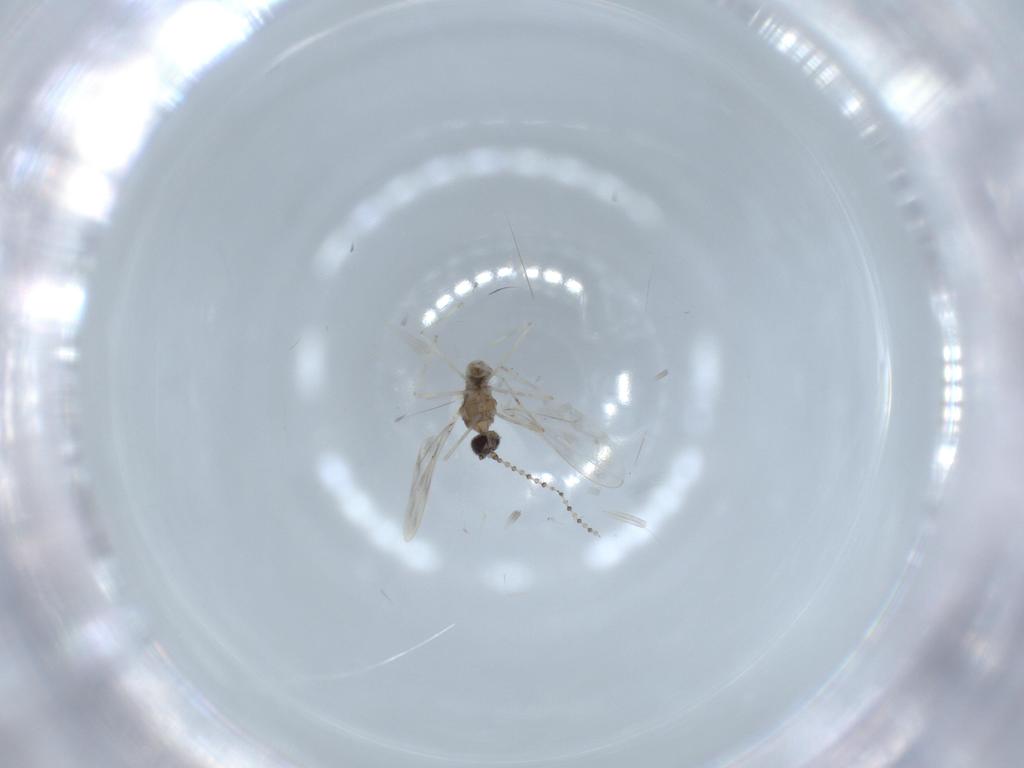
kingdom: Animalia
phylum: Arthropoda
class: Insecta
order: Diptera
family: Cecidomyiidae
